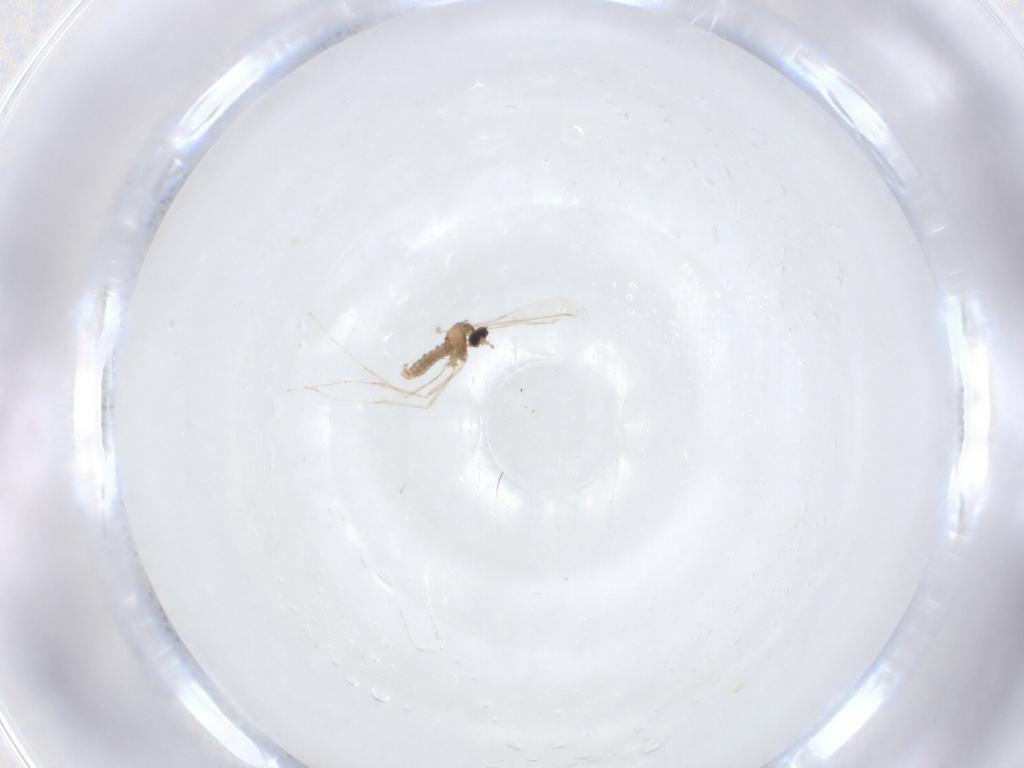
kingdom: Animalia
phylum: Arthropoda
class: Insecta
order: Diptera
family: Cecidomyiidae
